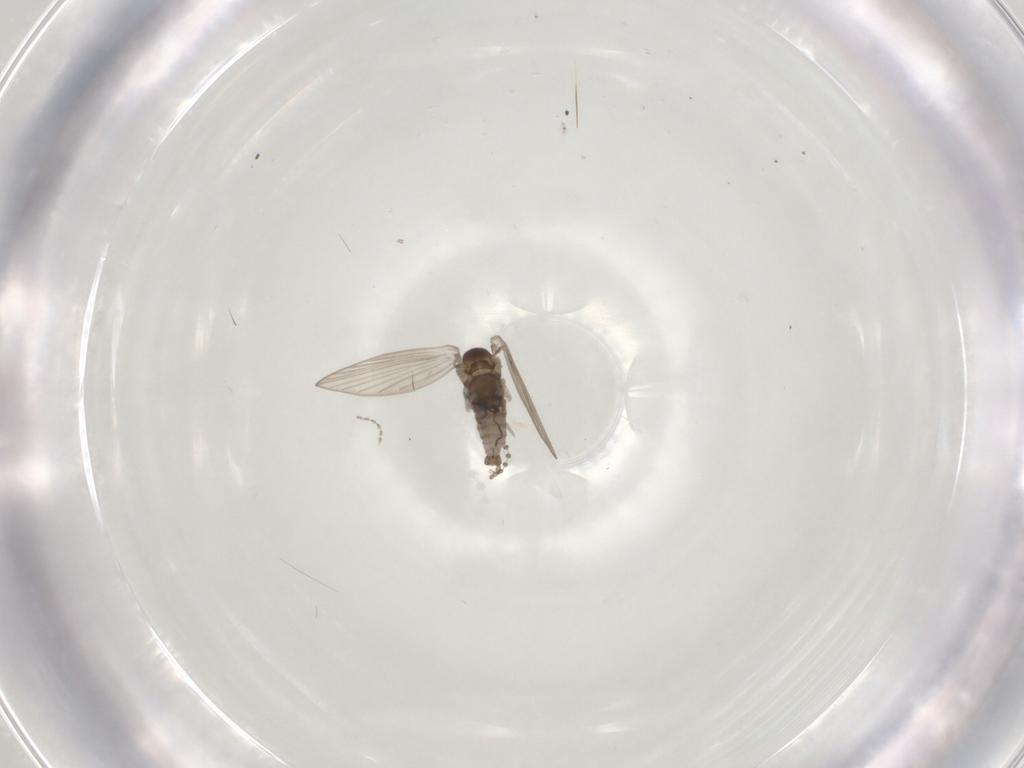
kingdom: Animalia
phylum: Arthropoda
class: Insecta
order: Diptera
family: Psychodidae
